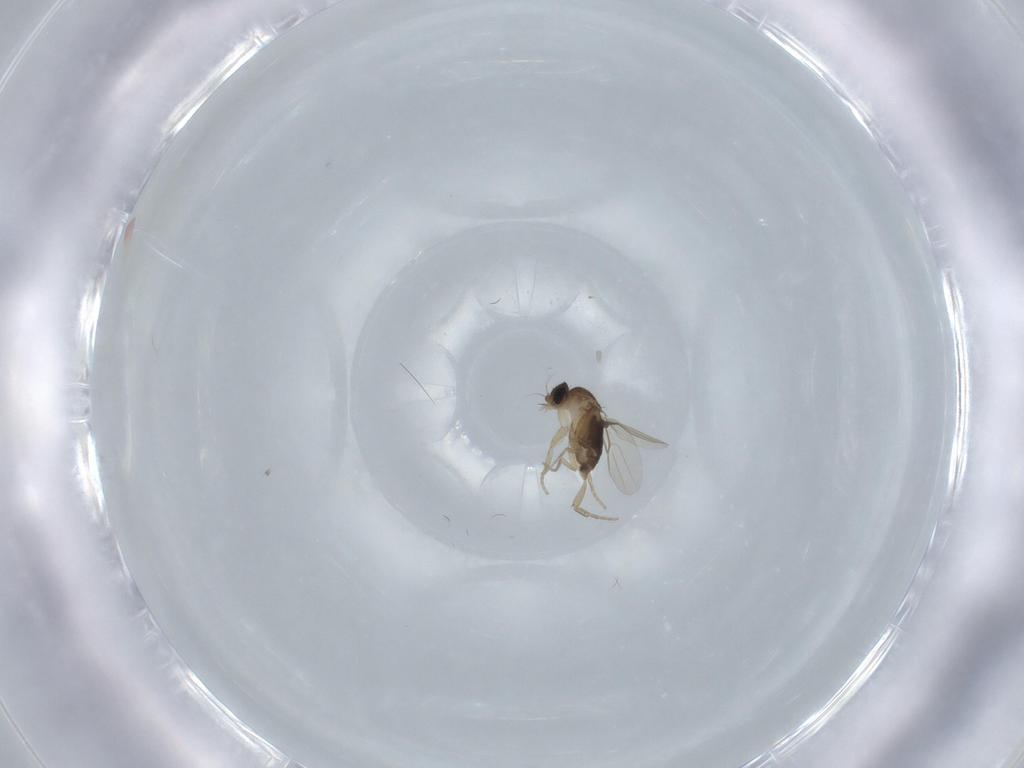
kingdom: Animalia
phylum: Arthropoda
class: Insecta
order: Diptera
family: Phoridae
